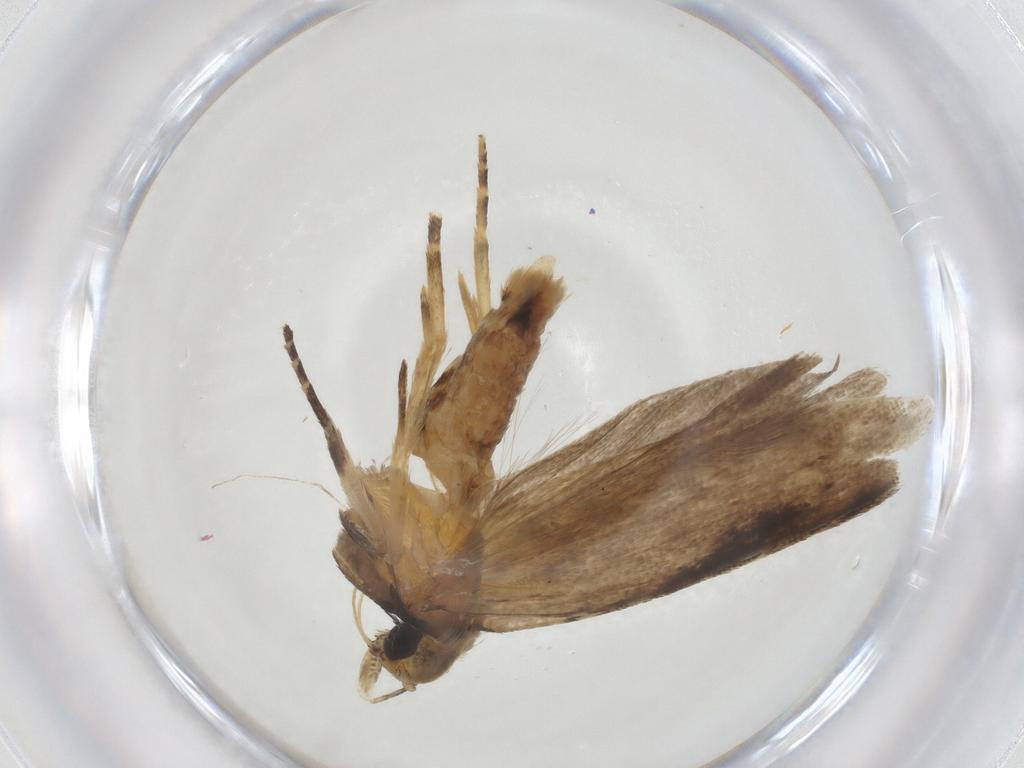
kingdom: Animalia
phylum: Arthropoda
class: Insecta
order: Lepidoptera
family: Gelechiidae
